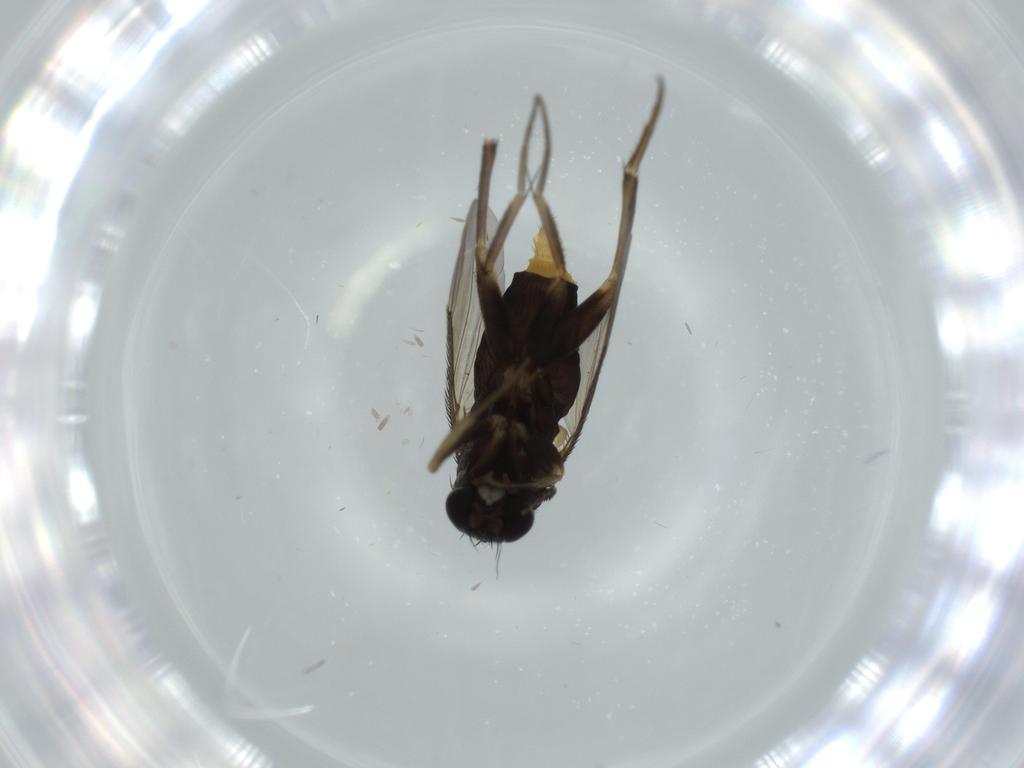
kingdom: Animalia
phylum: Arthropoda
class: Insecta
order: Diptera
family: Phoridae
